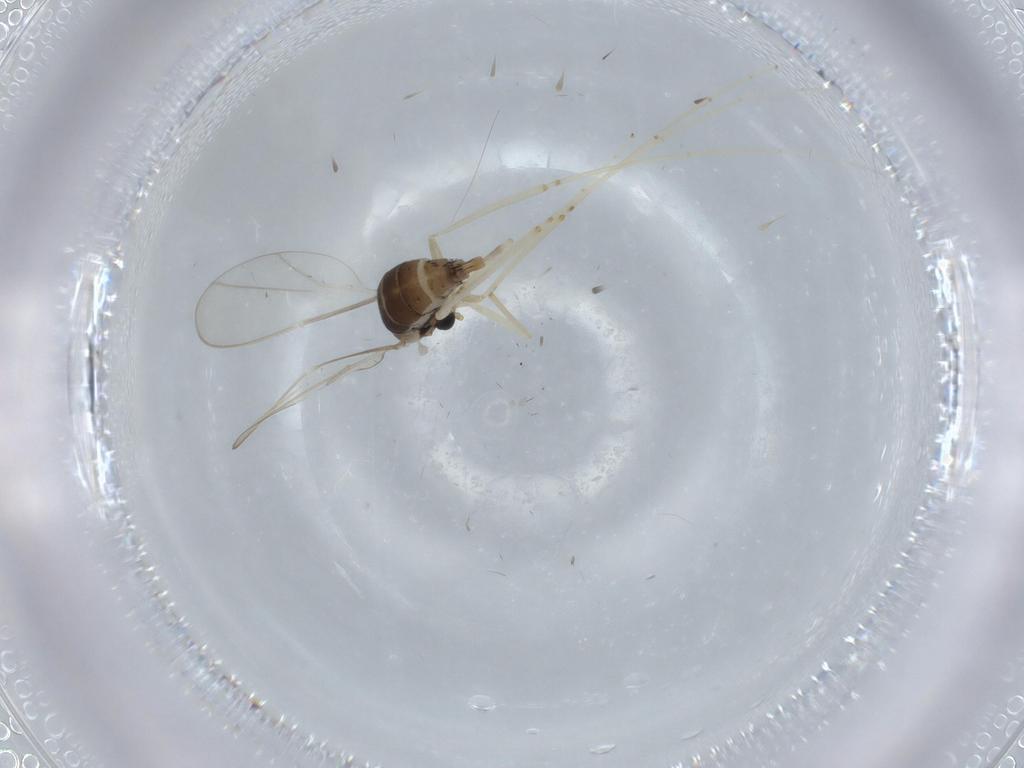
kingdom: Animalia
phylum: Arthropoda
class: Insecta
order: Diptera
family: Cecidomyiidae
